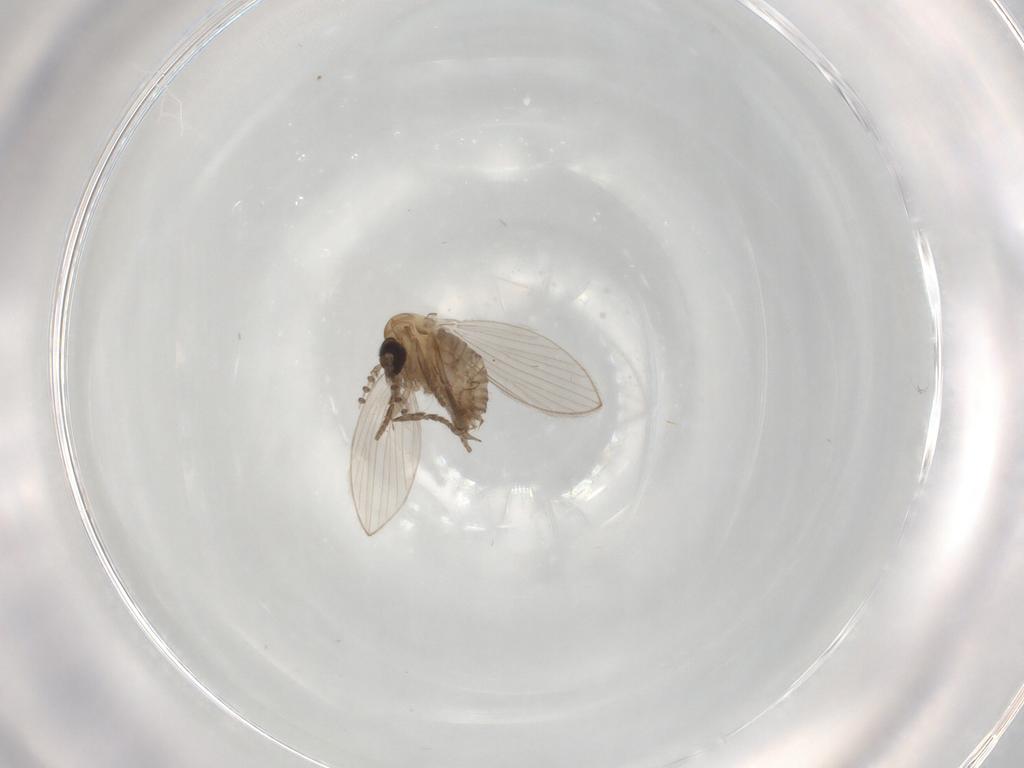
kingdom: Animalia
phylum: Arthropoda
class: Insecta
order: Diptera
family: Psychodidae
